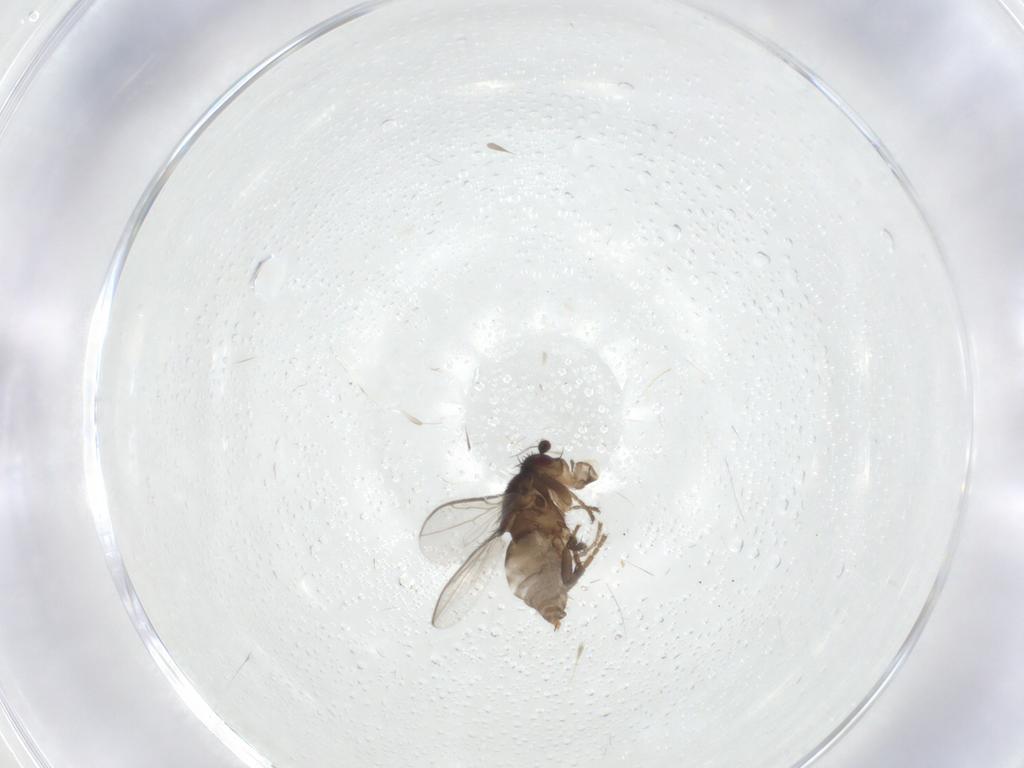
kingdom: Animalia
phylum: Arthropoda
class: Insecta
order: Diptera
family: Sphaeroceridae
